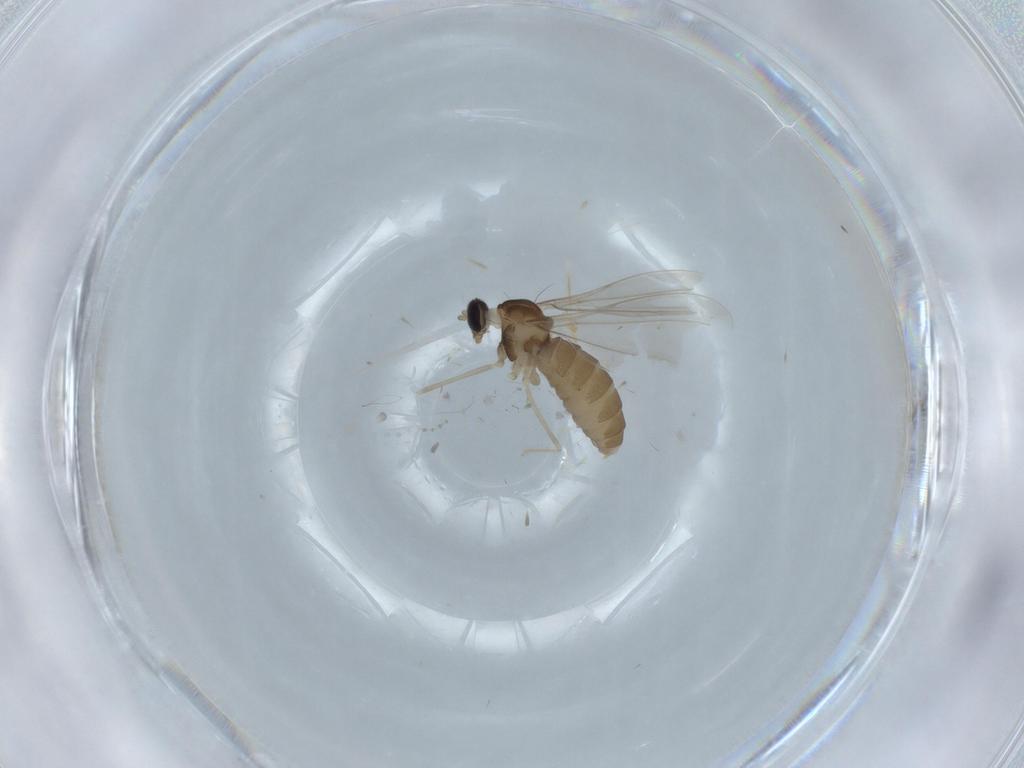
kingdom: Animalia
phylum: Arthropoda
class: Insecta
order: Diptera
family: Cecidomyiidae
